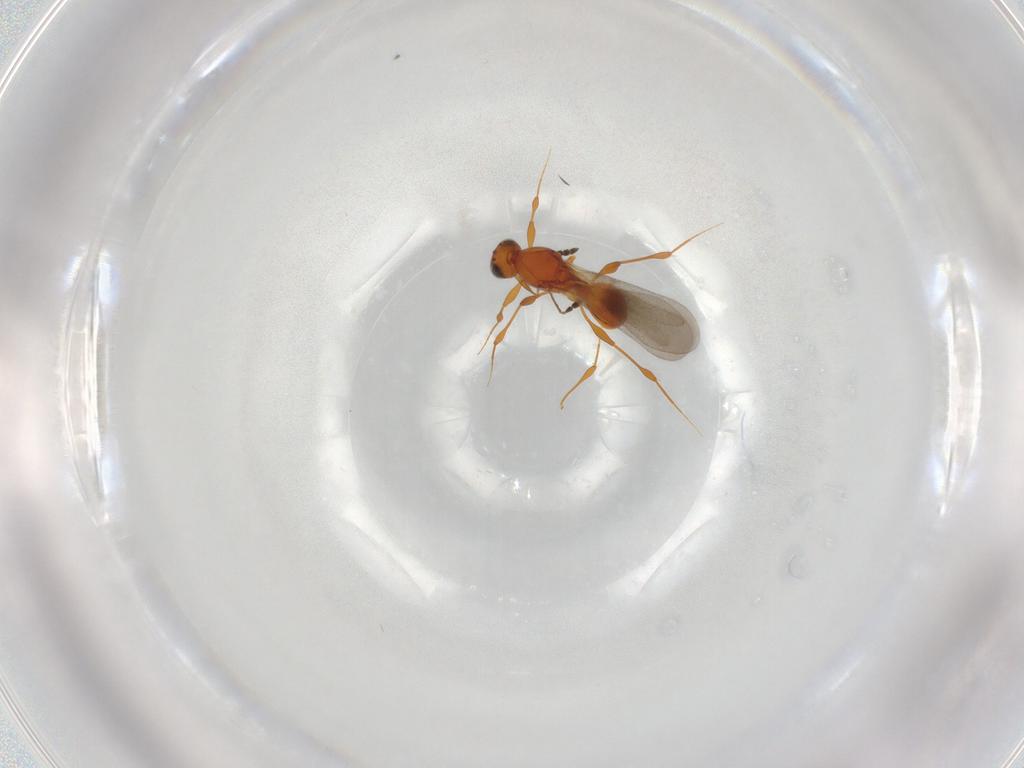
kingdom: Animalia
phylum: Arthropoda
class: Insecta
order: Hymenoptera
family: Platygastridae
